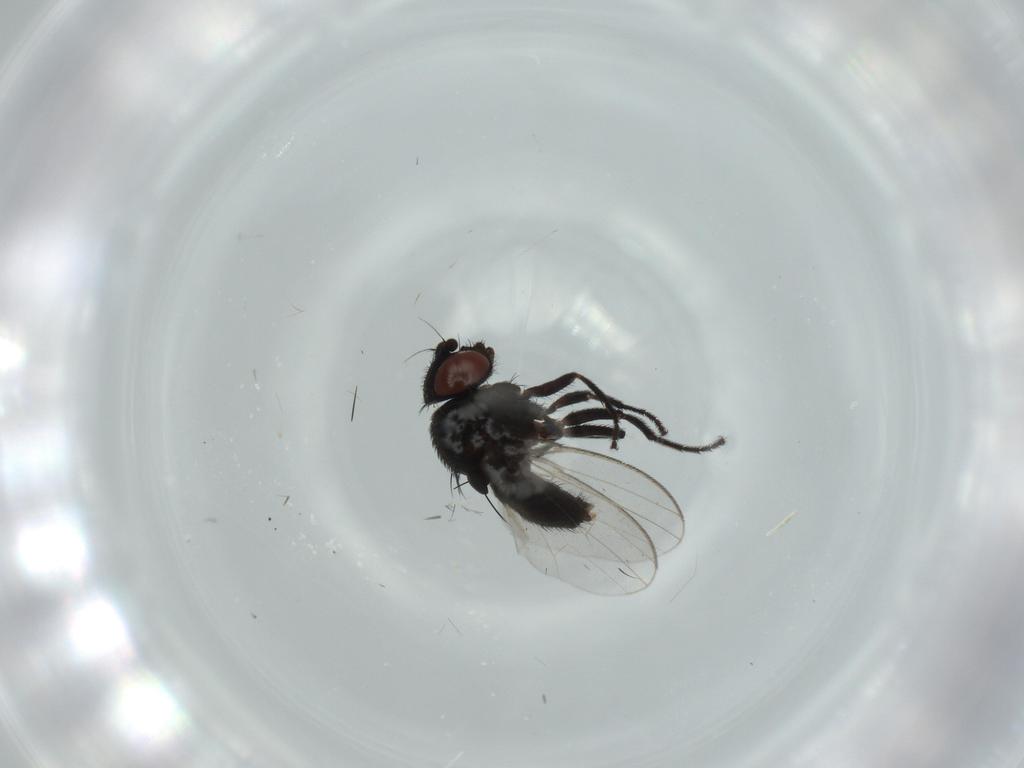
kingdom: Animalia
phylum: Arthropoda
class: Insecta
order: Diptera
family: Milichiidae
